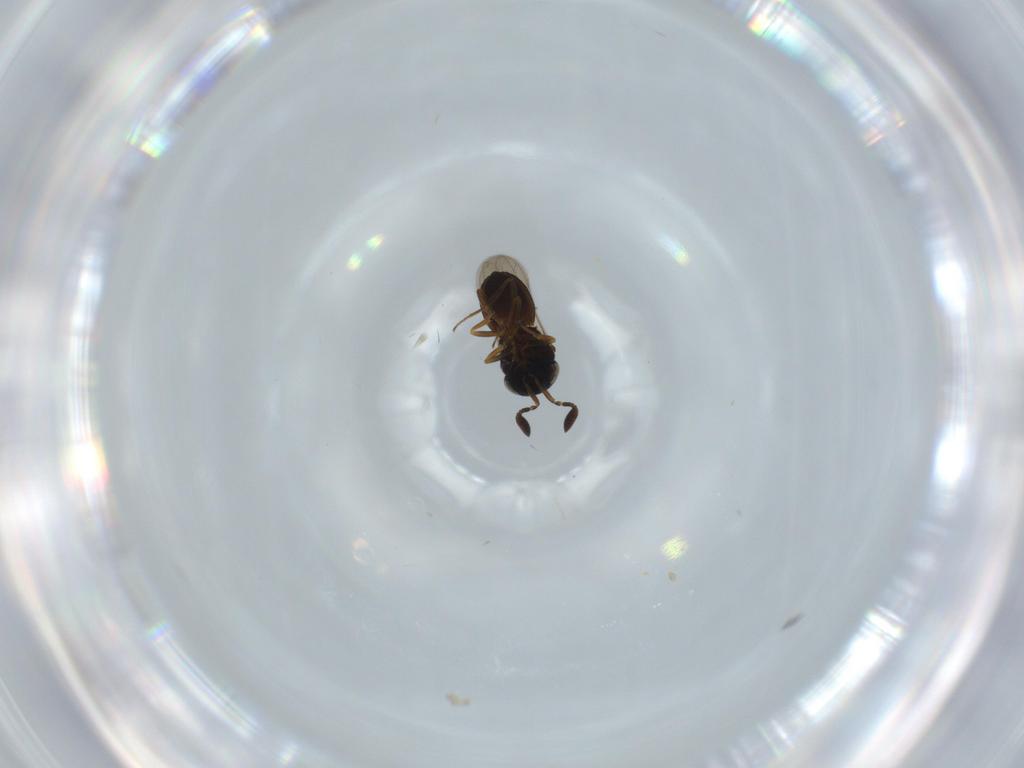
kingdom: Animalia
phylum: Arthropoda
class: Insecta
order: Coleoptera
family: Curculionidae
